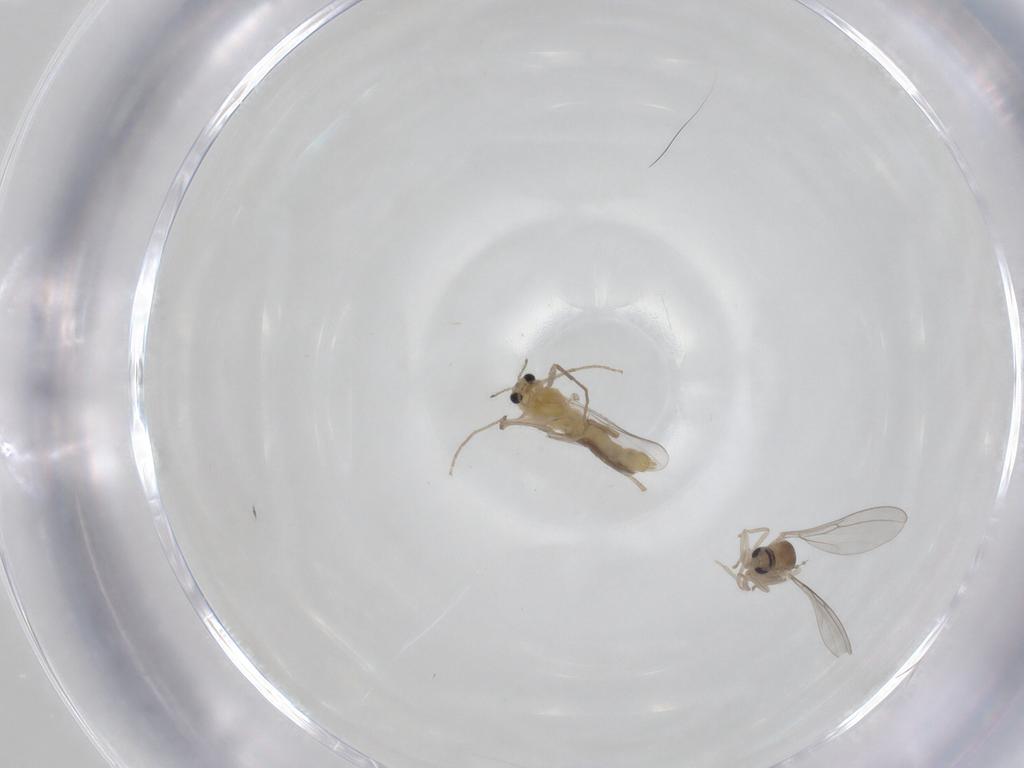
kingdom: Animalia
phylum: Arthropoda
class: Insecta
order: Diptera
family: Chironomidae
